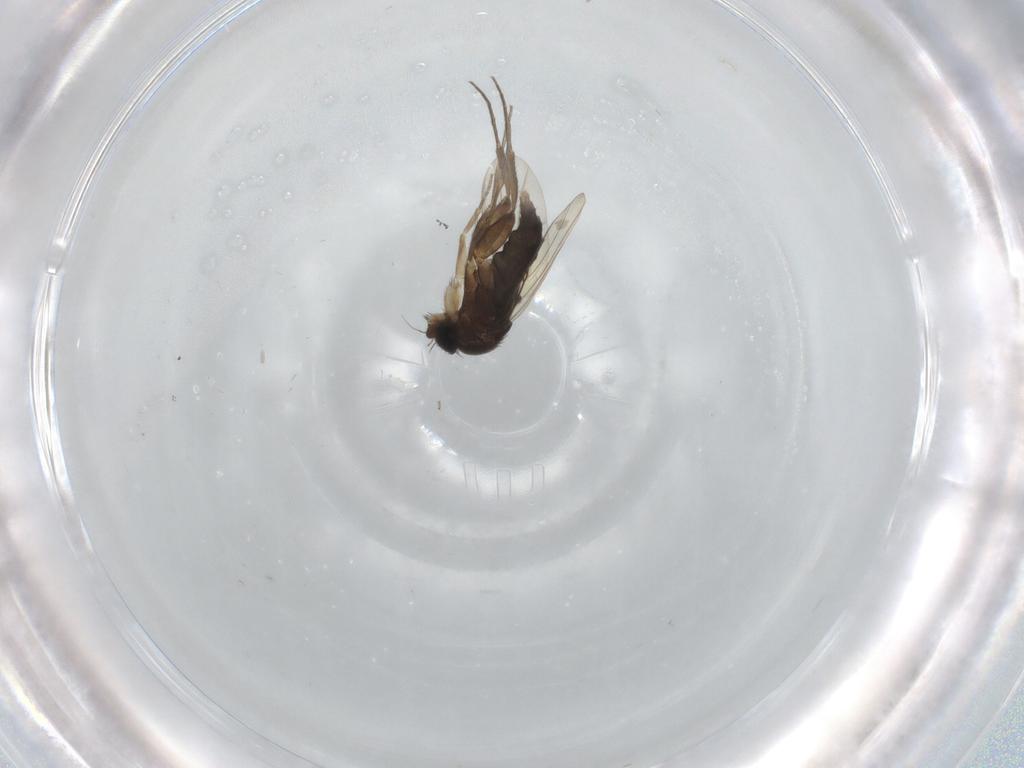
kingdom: Animalia
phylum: Arthropoda
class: Insecta
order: Diptera
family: Phoridae
